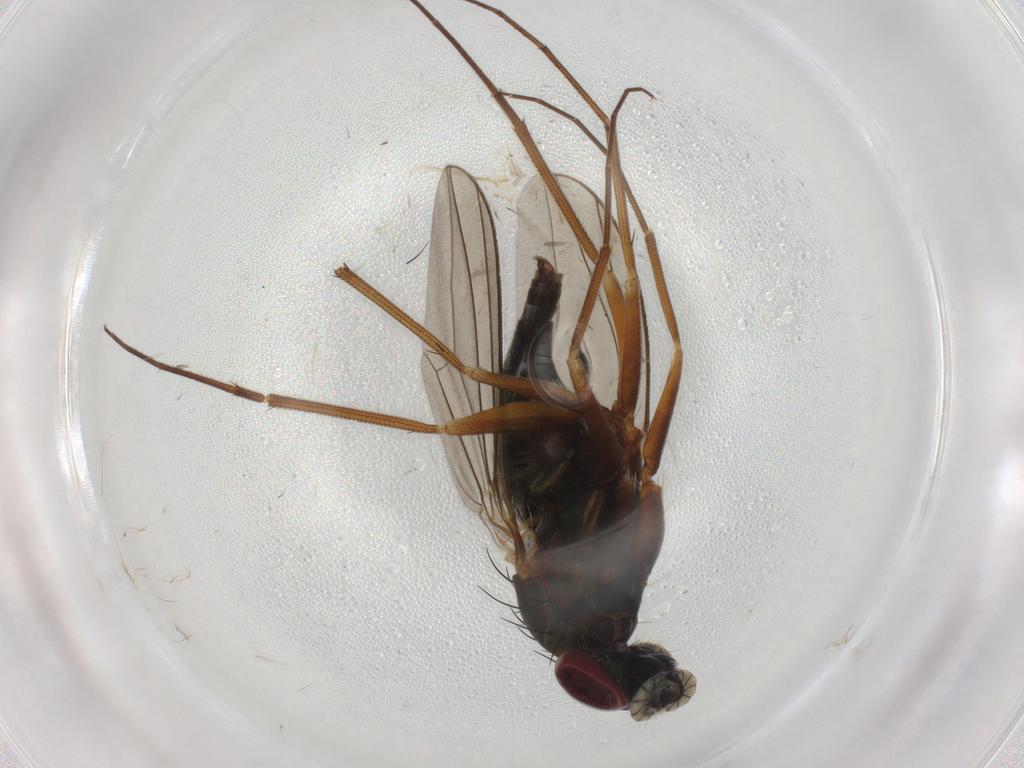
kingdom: Animalia
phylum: Arthropoda
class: Insecta
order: Diptera
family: Dolichopodidae
